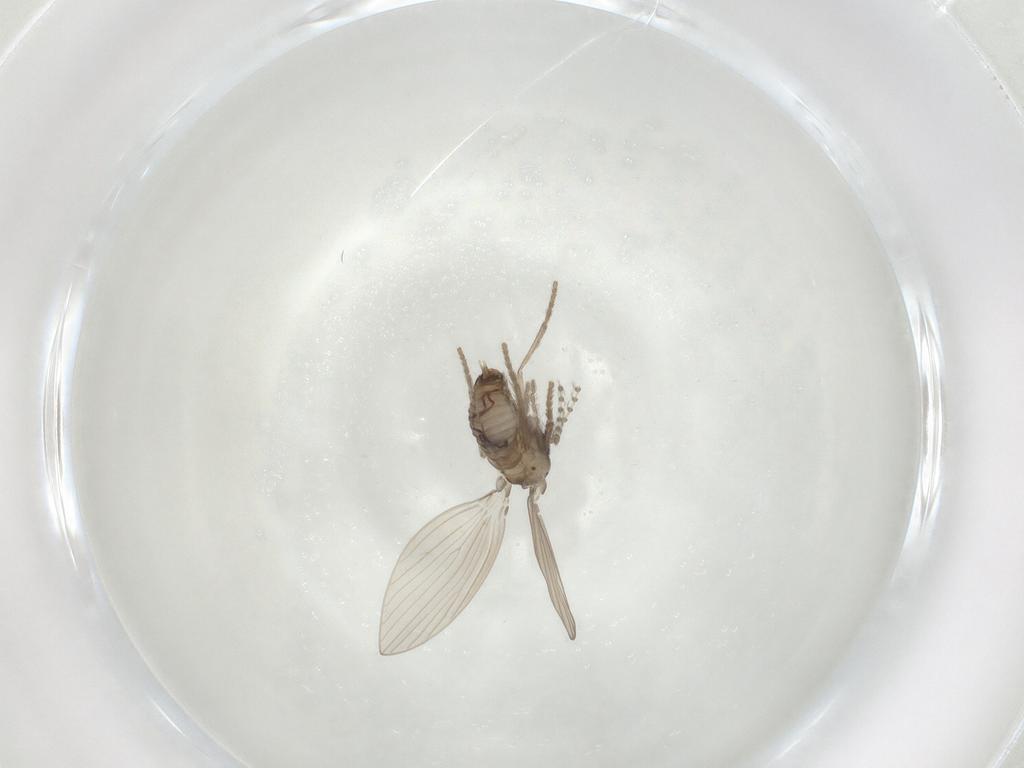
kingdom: Animalia
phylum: Arthropoda
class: Insecta
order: Diptera
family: Psychodidae
